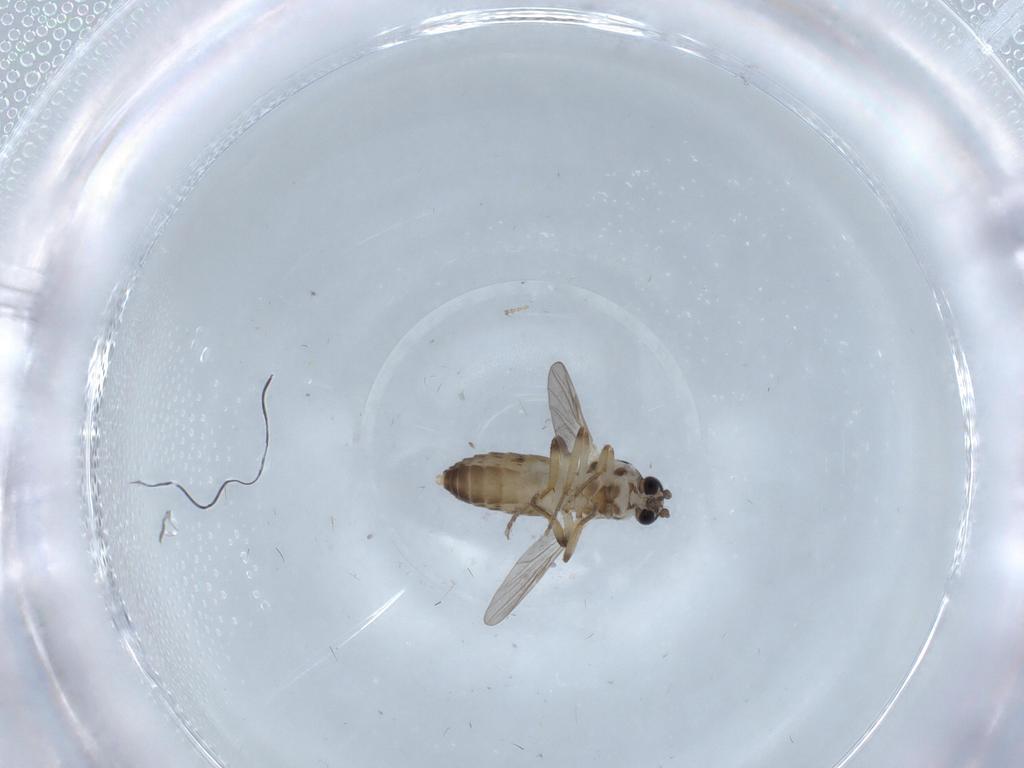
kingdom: Animalia
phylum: Arthropoda
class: Insecta
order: Diptera
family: Ceratopogonidae
